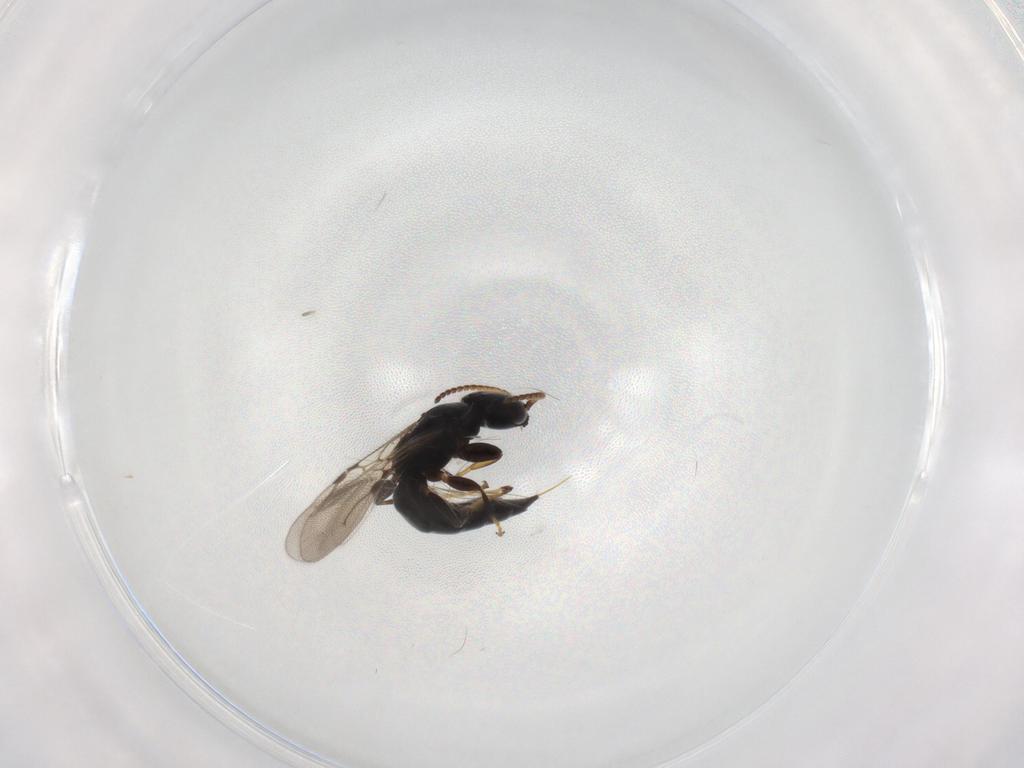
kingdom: Animalia
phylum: Arthropoda
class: Insecta
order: Hymenoptera
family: Bethylidae
